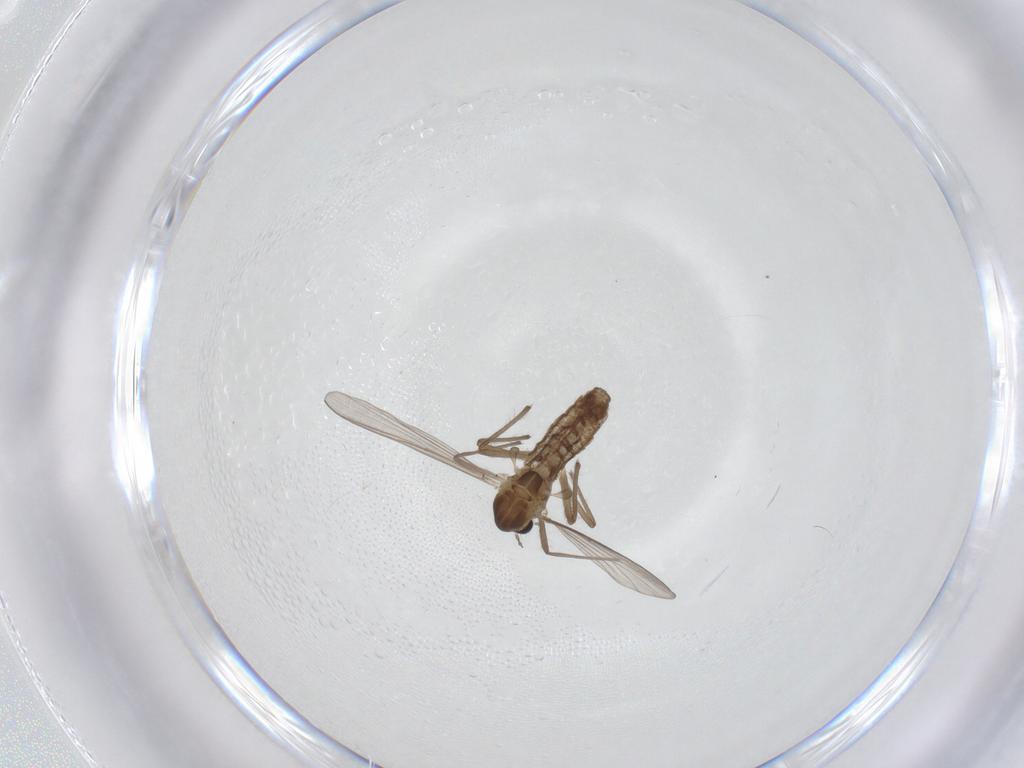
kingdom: Animalia
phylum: Arthropoda
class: Insecta
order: Diptera
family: Chironomidae
